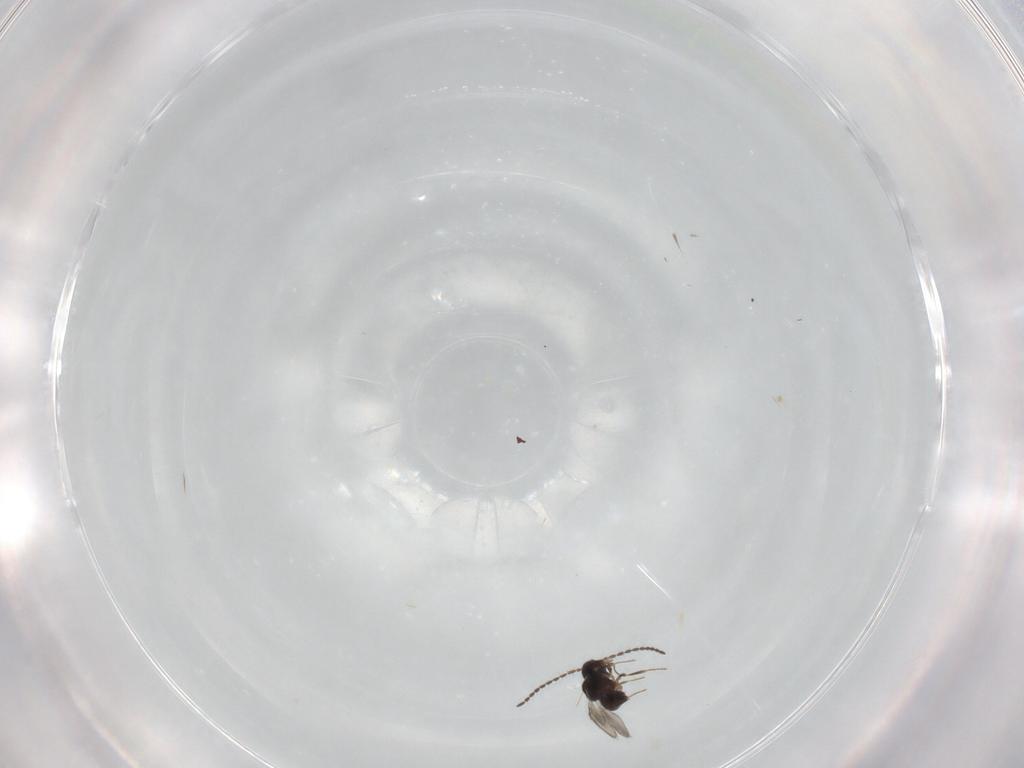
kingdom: Animalia
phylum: Arthropoda
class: Insecta
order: Hymenoptera
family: Ceraphronidae
